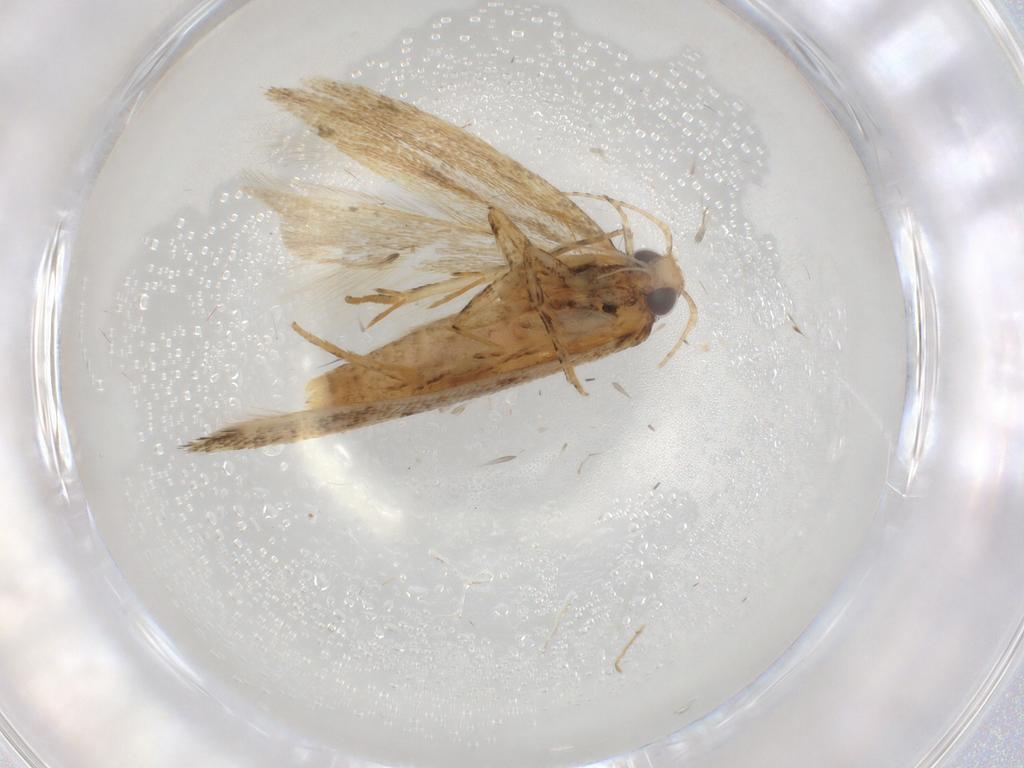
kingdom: Animalia
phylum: Arthropoda
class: Insecta
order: Lepidoptera
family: Gelechiidae
